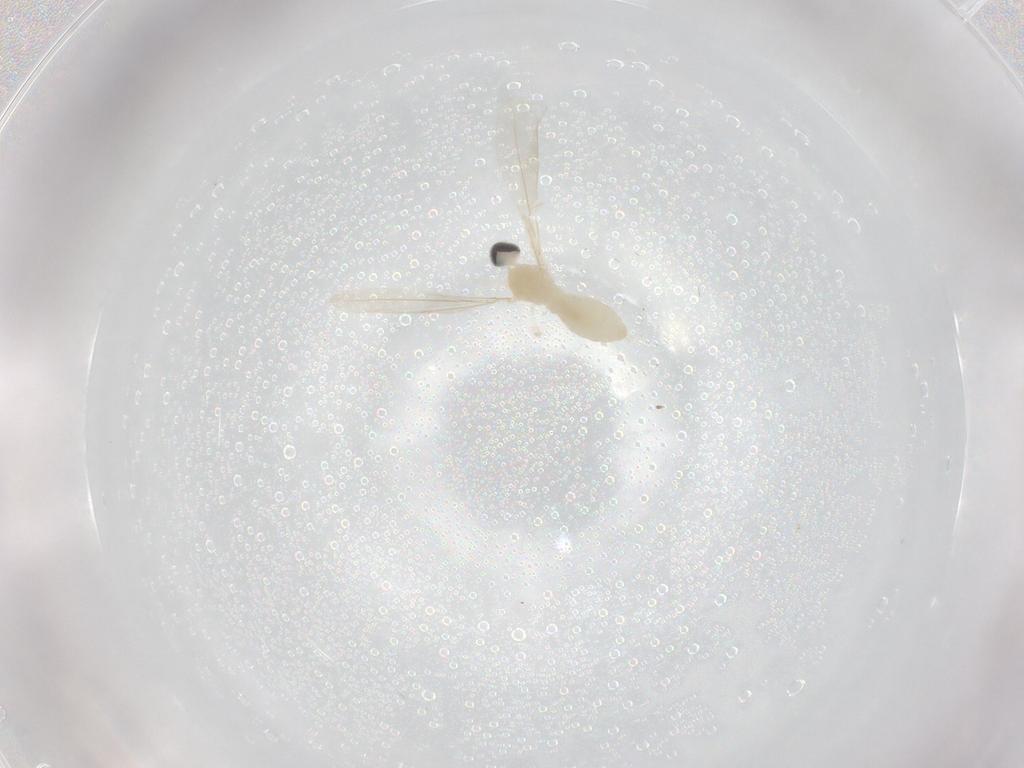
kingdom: Animalia
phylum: Arthropoda
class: Insecta
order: Diptera
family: Cecidomyiidae
